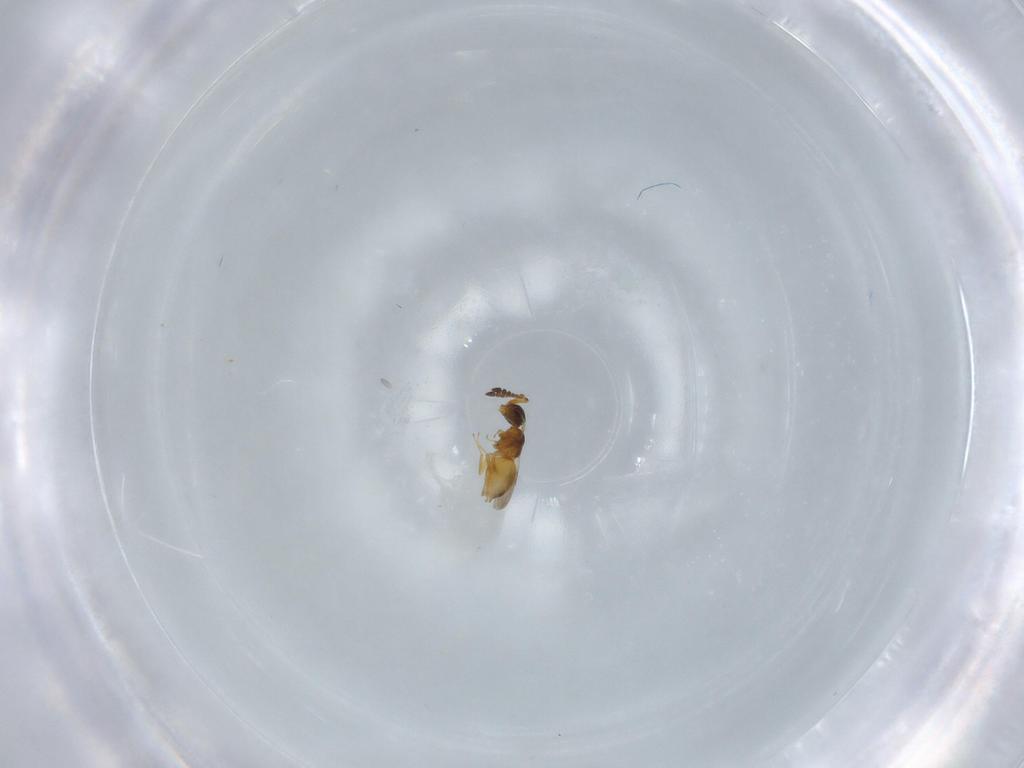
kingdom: Animalia
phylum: Arthropoda
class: Insecta
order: Hymenoptera
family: Ceraphronidae
